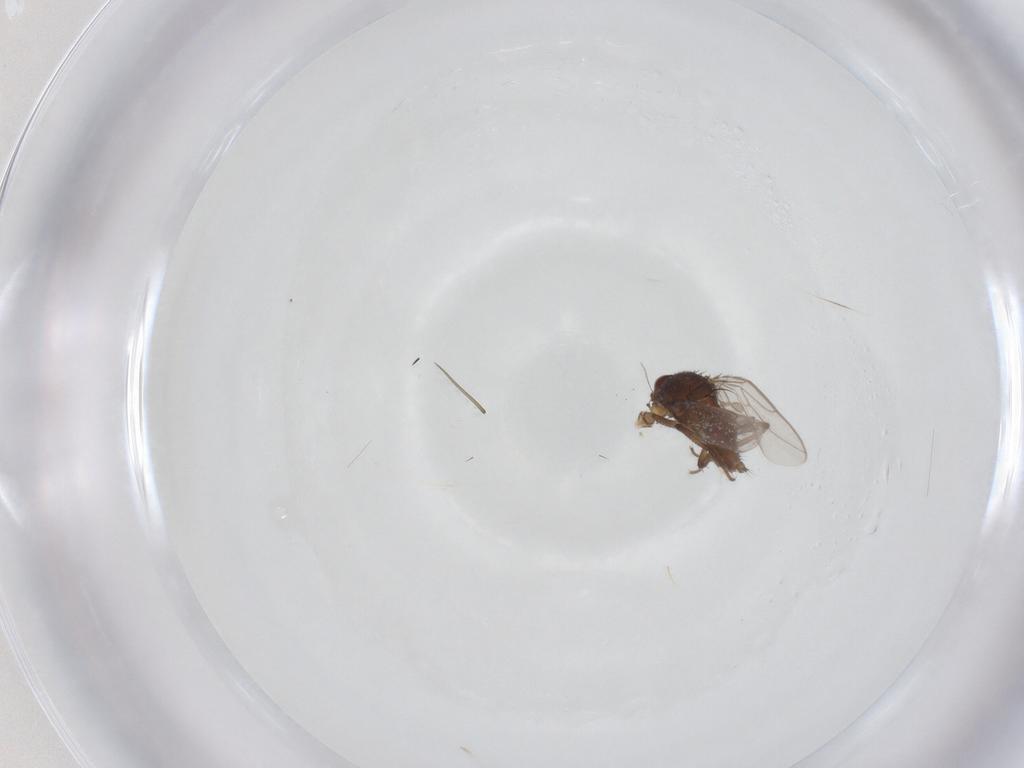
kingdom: Animalia
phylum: Arthropoda
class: Insecta
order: Diptera
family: Sphaeroceridae
